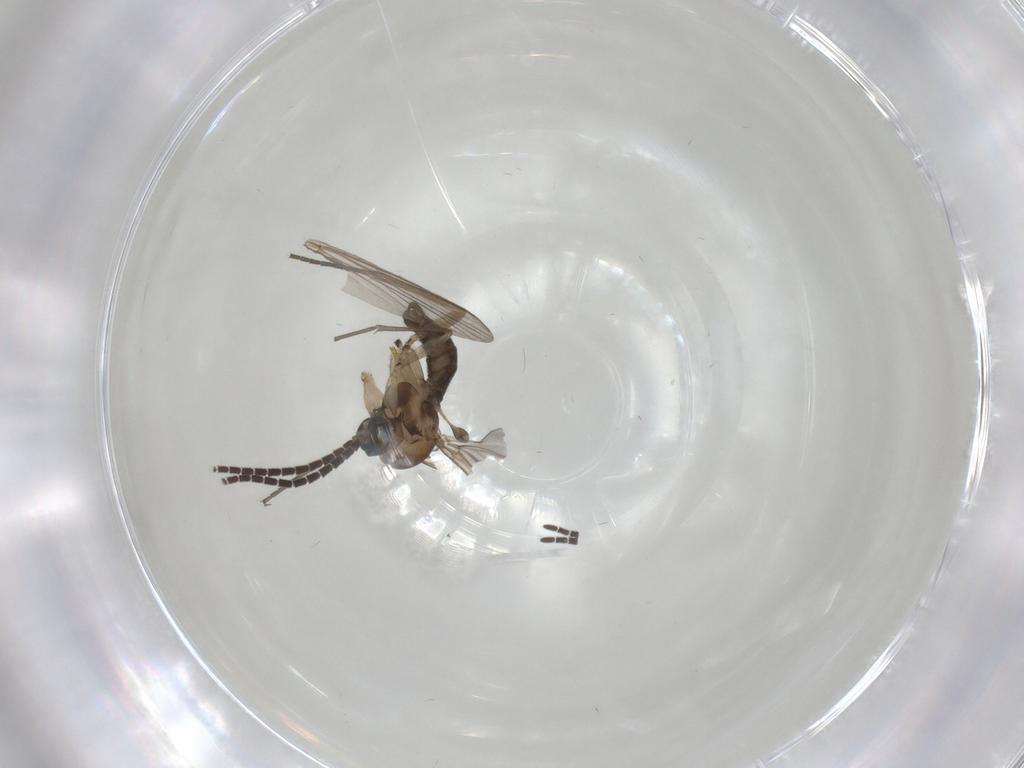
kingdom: Animalia
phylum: Arthropoda
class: Insecta
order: Diptera
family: Sciaridae
